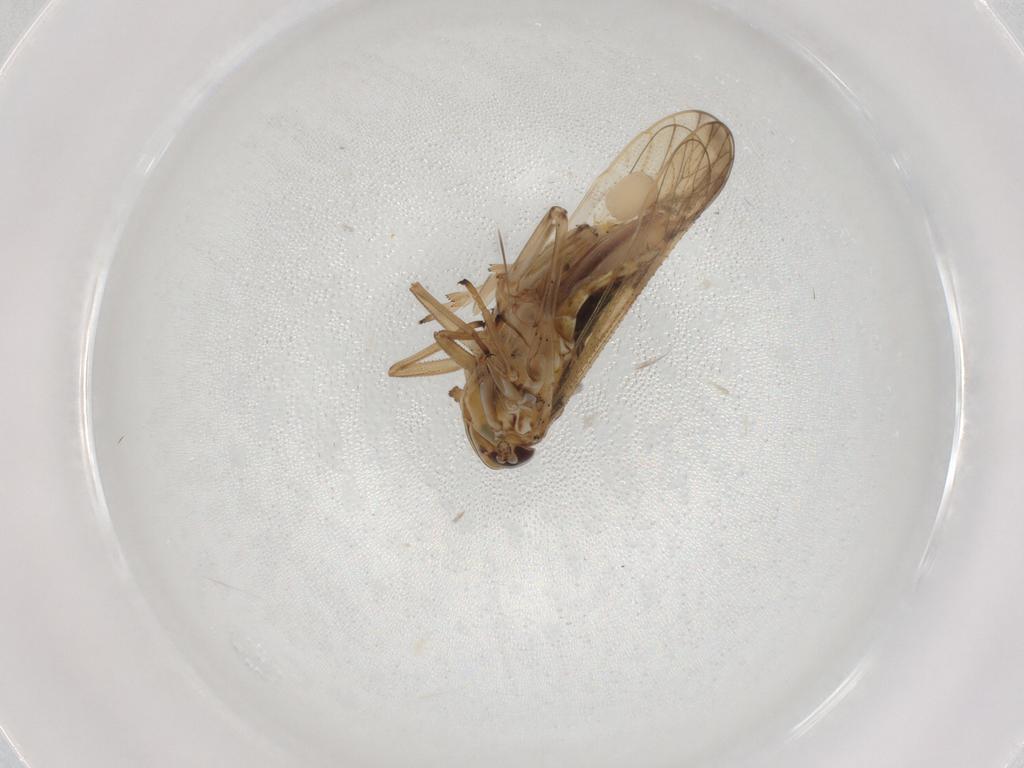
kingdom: Animalia
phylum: Arthropoda
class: Insecta
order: Hemiptera
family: Delphacidae
